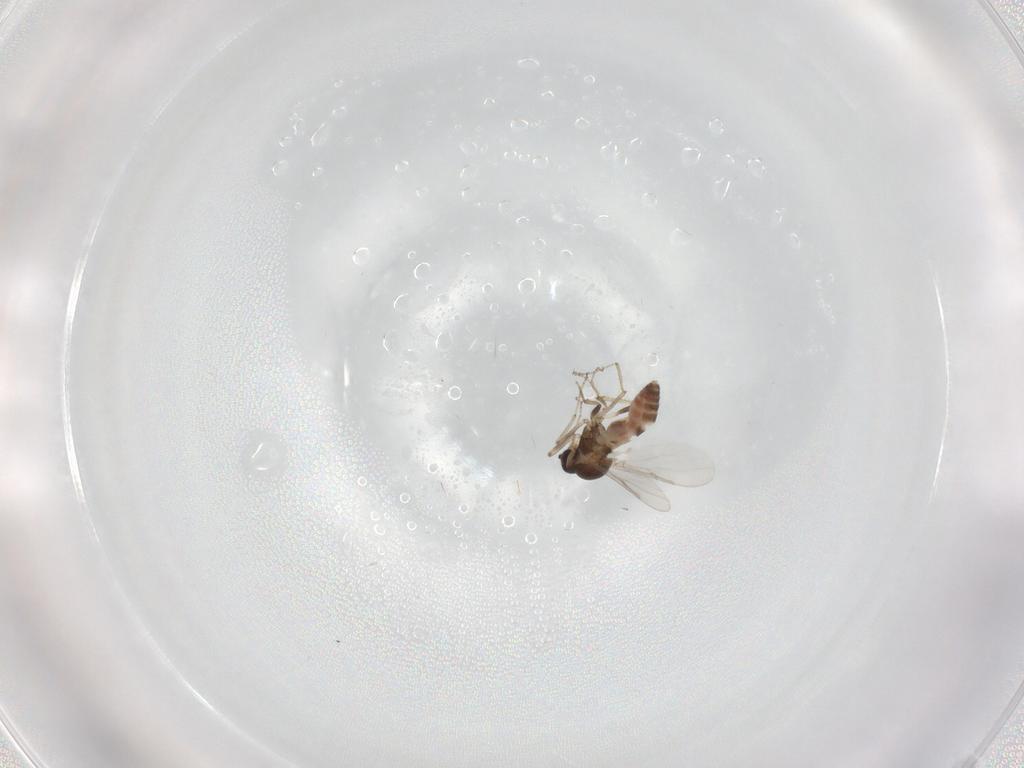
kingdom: Animalia
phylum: Arthropoda
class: Insecta
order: Diptera
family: Ceratopogonidae
